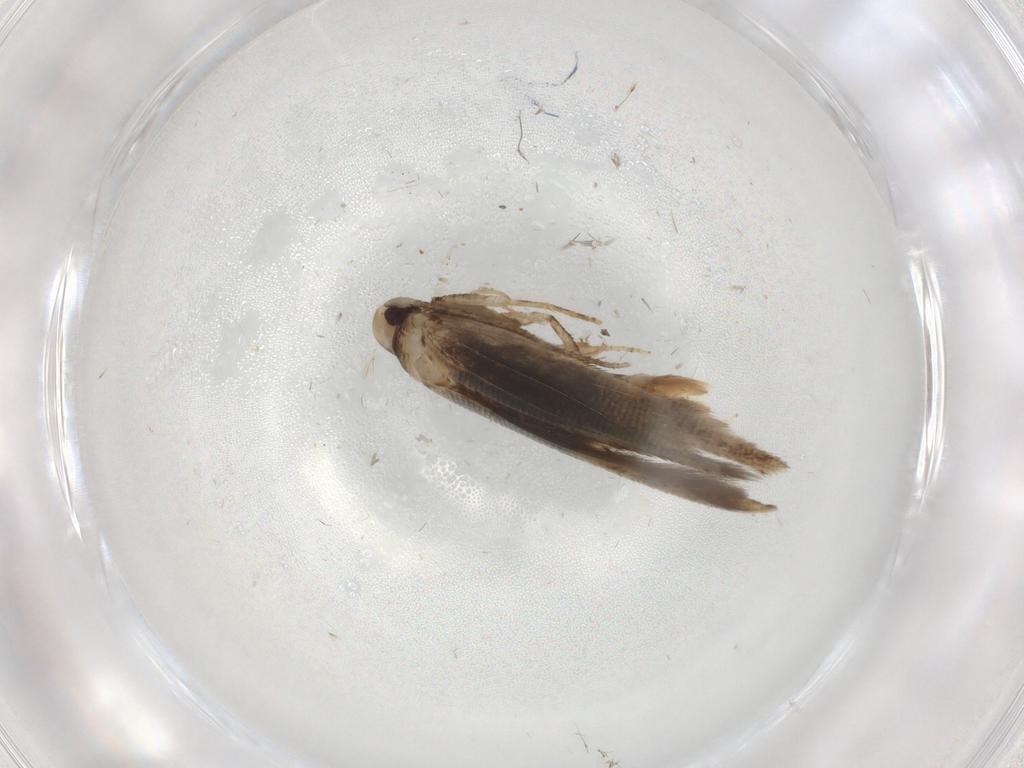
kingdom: Animalia
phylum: Arthropoda
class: Insecta
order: Lepidoptera
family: Cosmopterigidae
